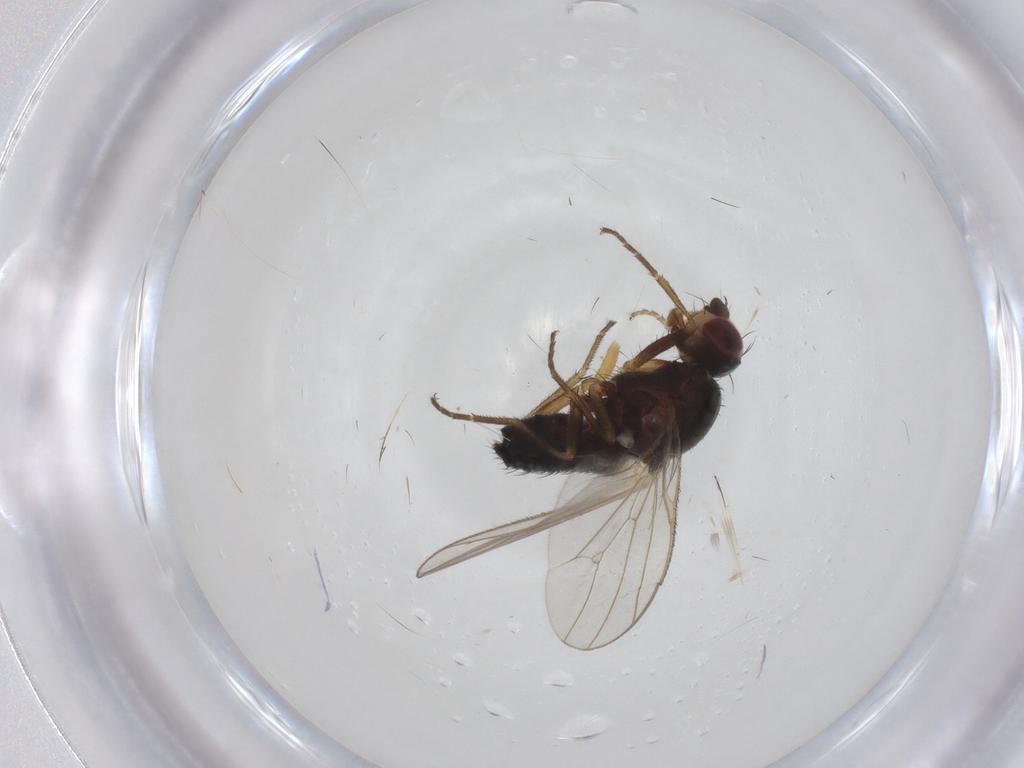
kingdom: Animalia
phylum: Arthropoda
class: Insecta
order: Diptera
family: Heleomyzidae
